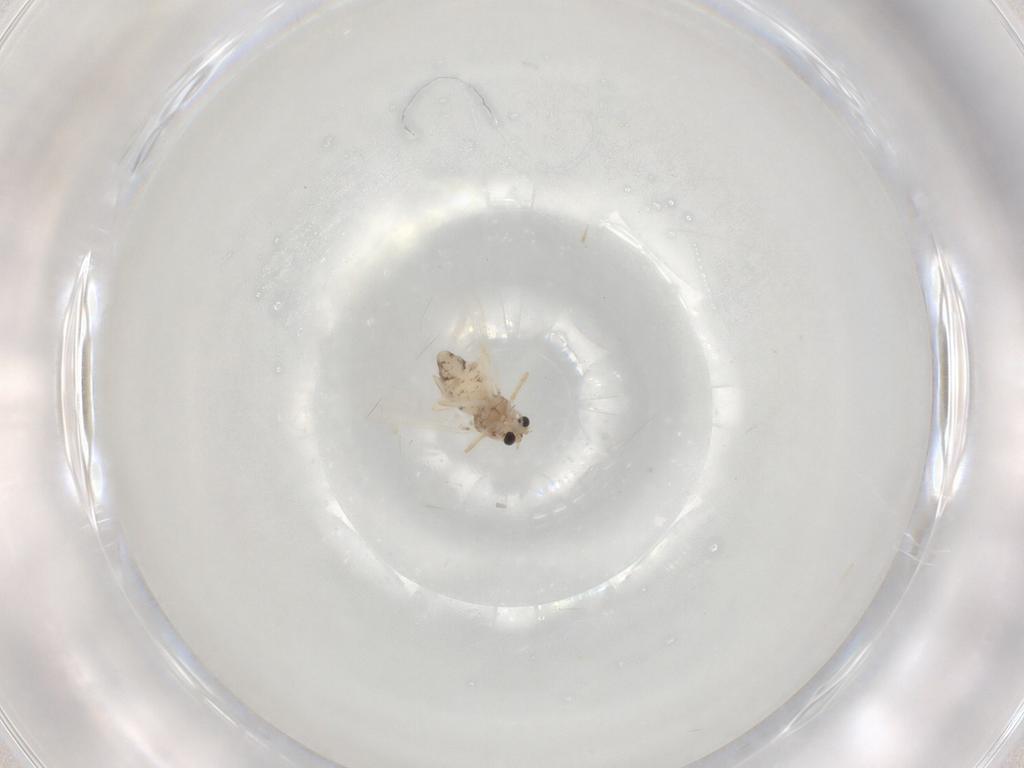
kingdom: Animalia
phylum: Arthropoda
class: Insecta
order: Diptera
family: Chironomidae
